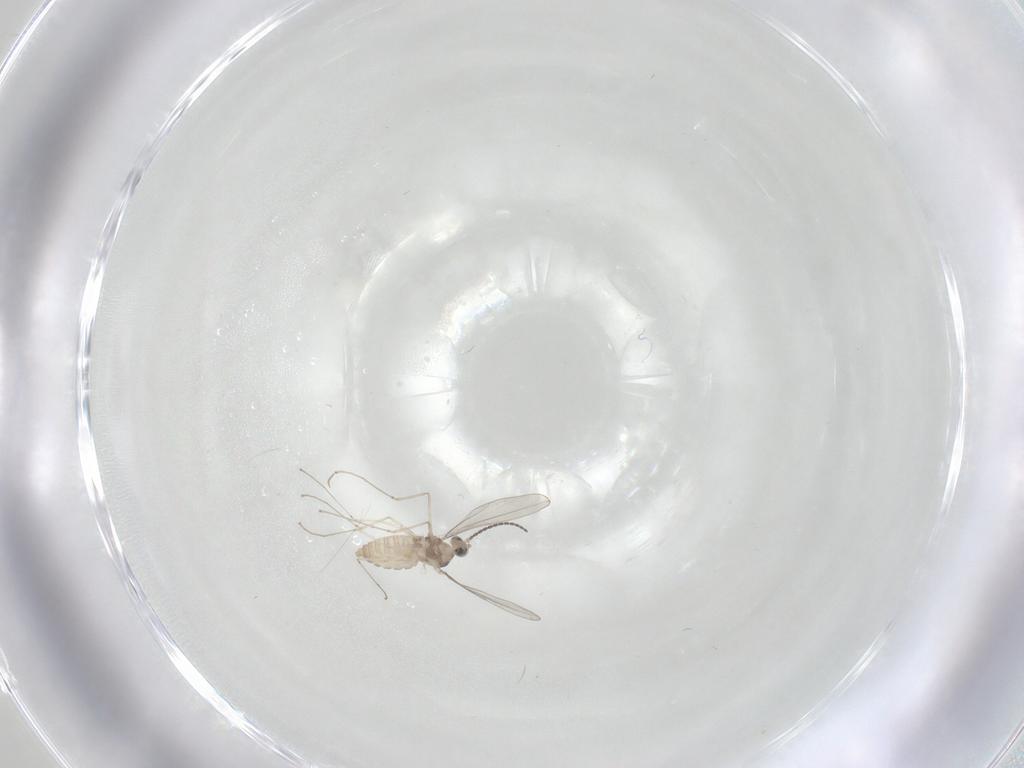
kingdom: Animalia
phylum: Arthropoda
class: Insecta
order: Diptera
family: Cecidomyiidae
